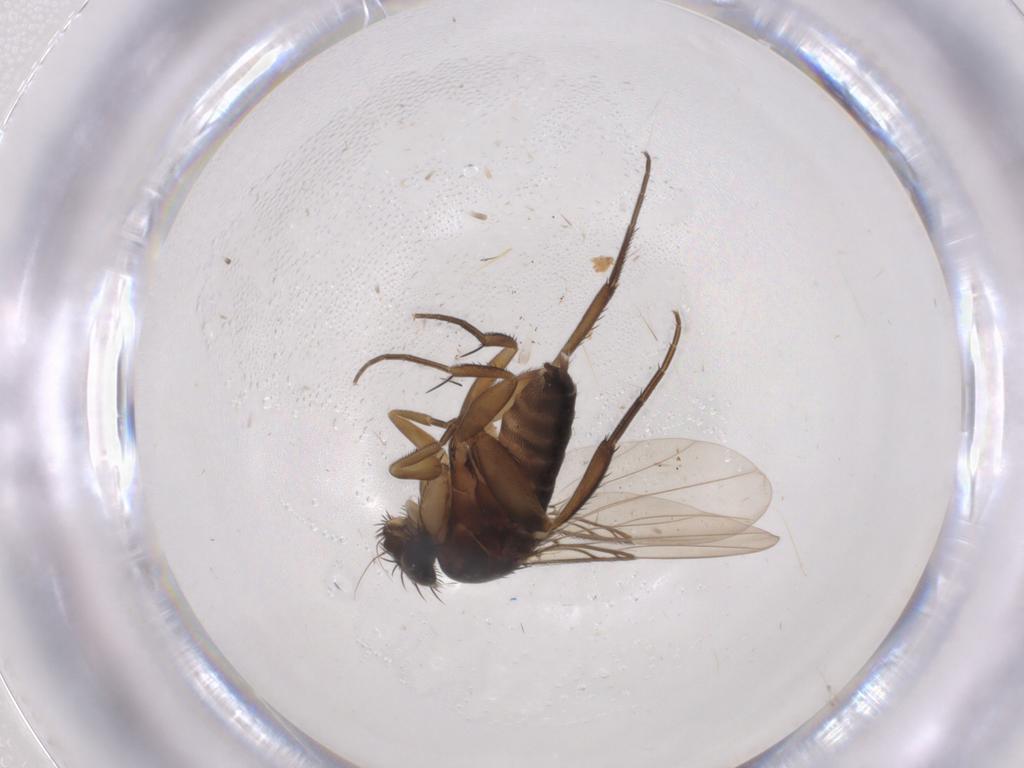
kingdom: Animalia
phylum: Arthropoda
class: Insecta
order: Diptera
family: Phoridae
